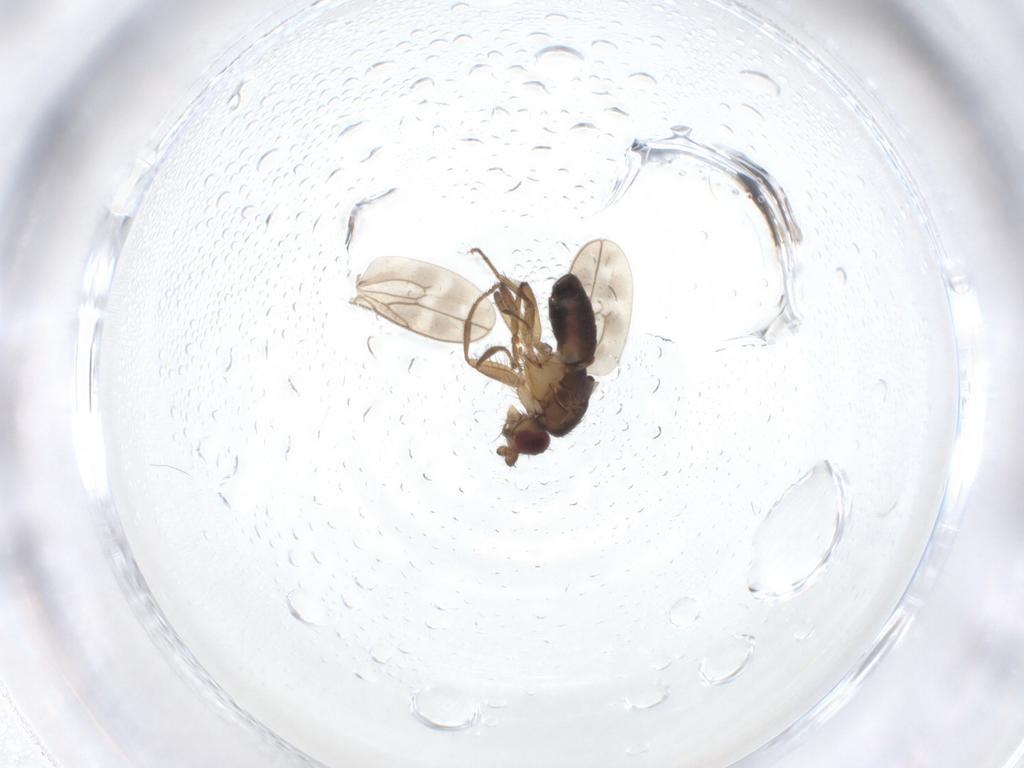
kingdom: Animalia
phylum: Arthropoda
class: Insecta
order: Diptera
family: Sphaeroceridae
